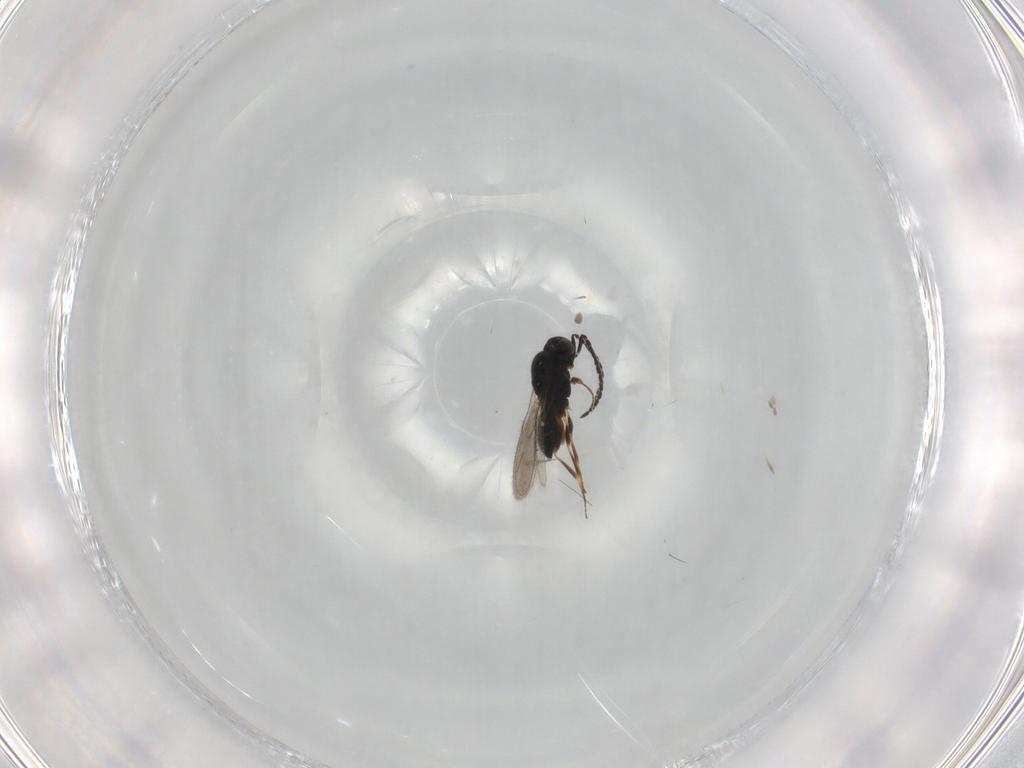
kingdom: Animalia
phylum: Arthropoda
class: Insecta
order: Hymenoptera
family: Scelionidae
